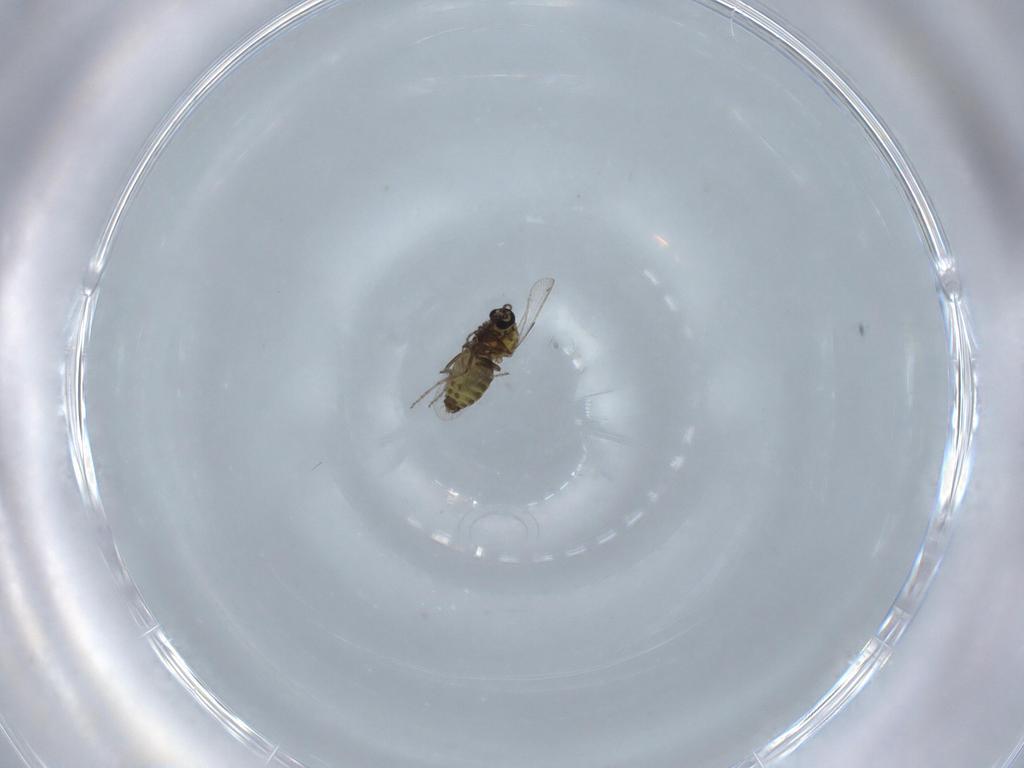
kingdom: Animalia
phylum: Arthropoda
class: Insecta
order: Diptera
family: Ceratopogonidae
